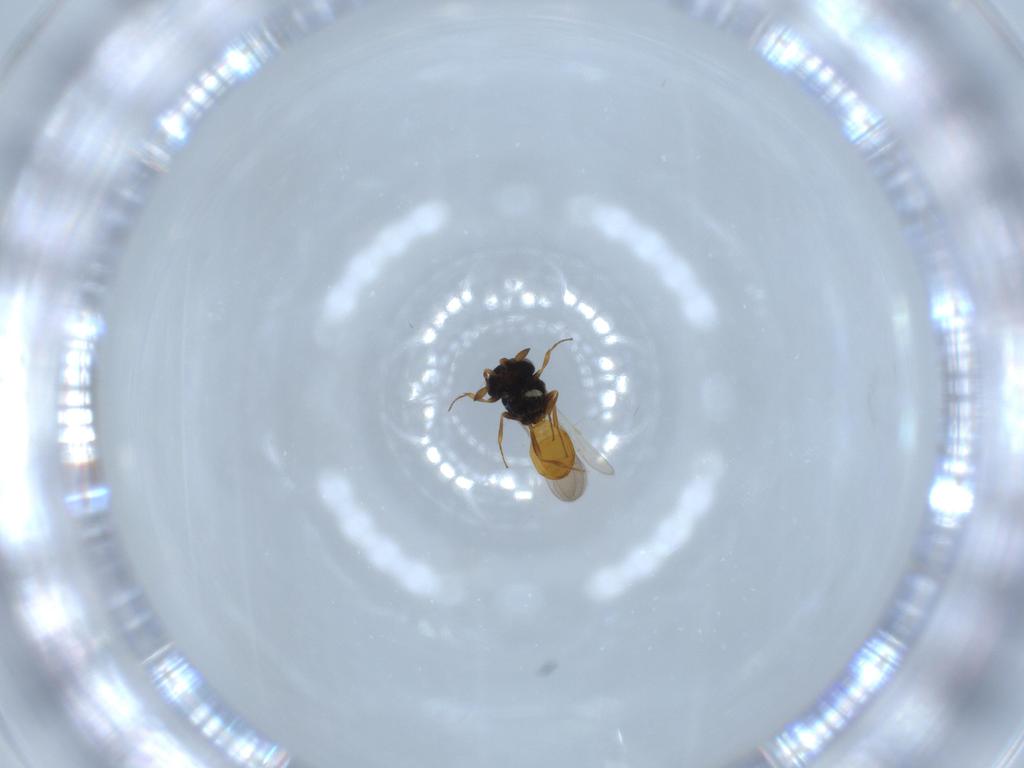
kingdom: Animalia
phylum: Arthropoda
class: Insecta
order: Hymenoptera
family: Scelionidae
